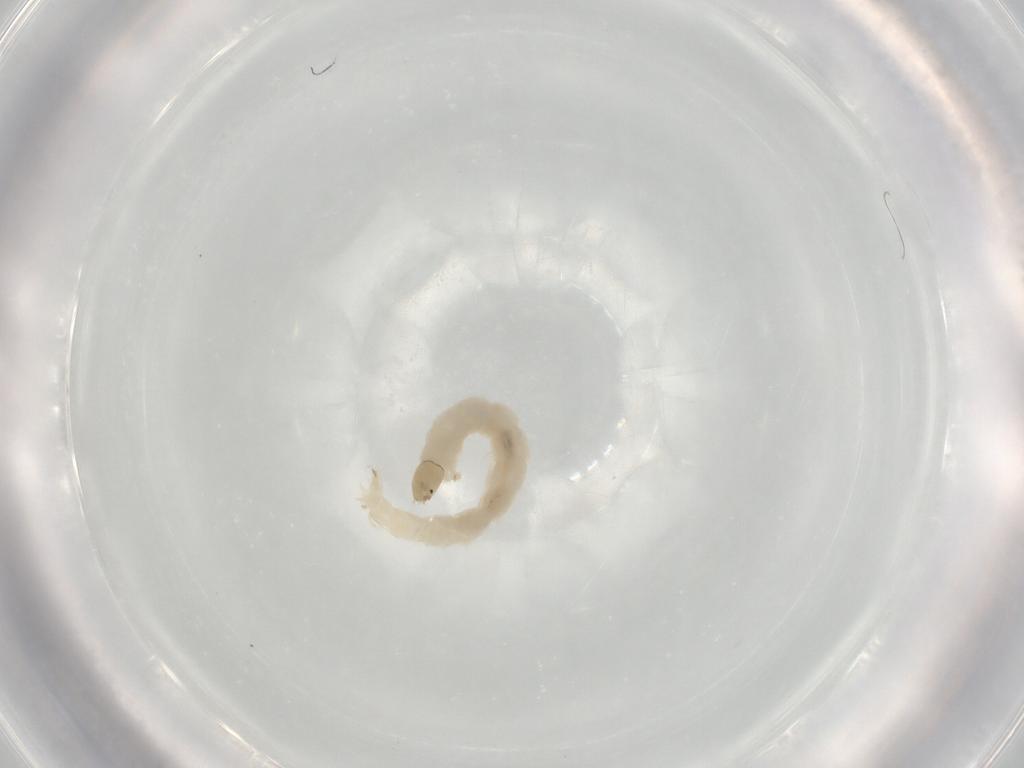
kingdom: Animalia
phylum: Arthropoda
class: Insecta
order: Diptera
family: Chironomidae
